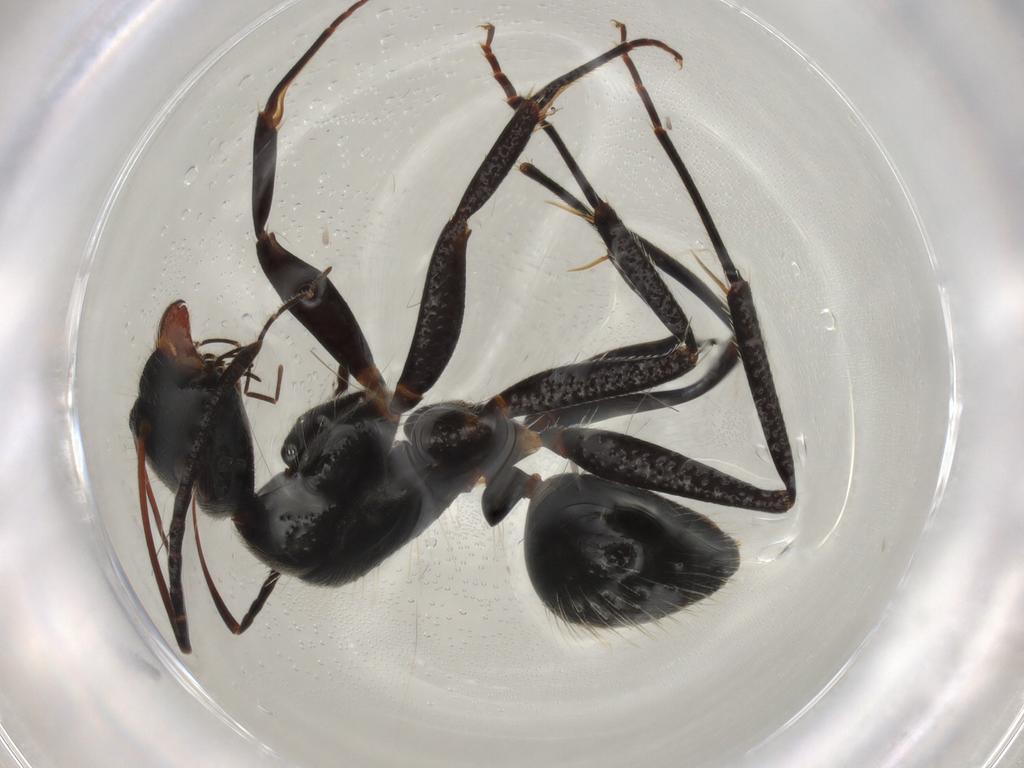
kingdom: Animalia
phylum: Arthropoda
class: Insecta
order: Hymenoptera
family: Formicidae
